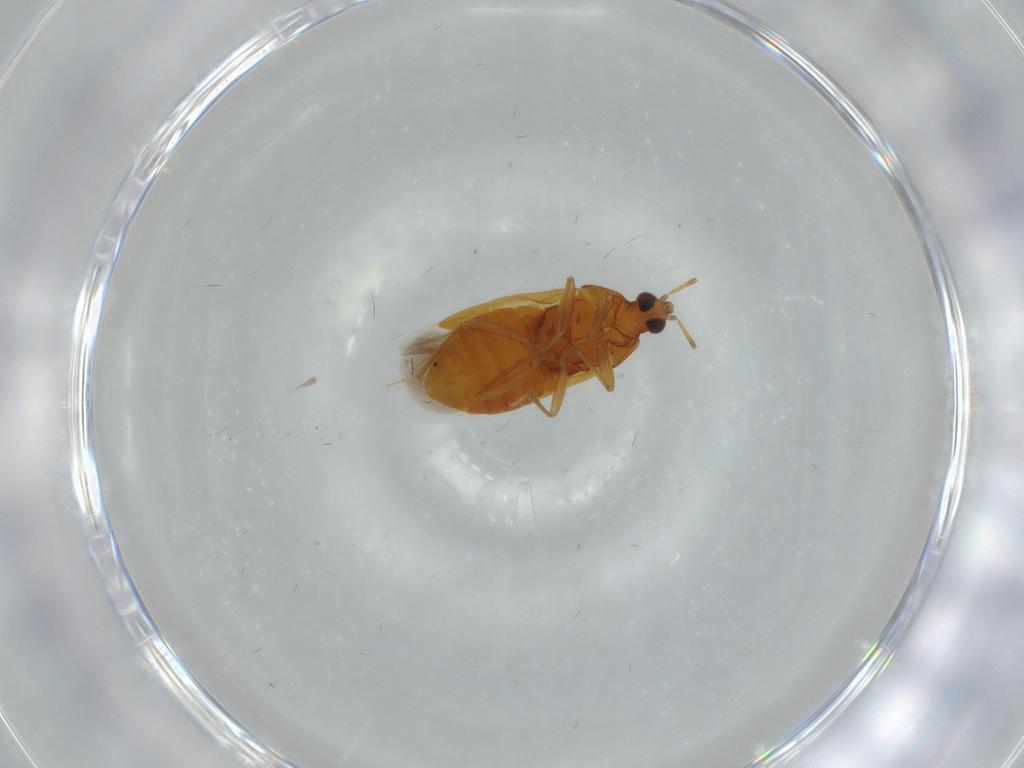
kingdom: Animalia
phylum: Arthropoda
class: Insecta
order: Hemiptera
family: Anthocoridae
